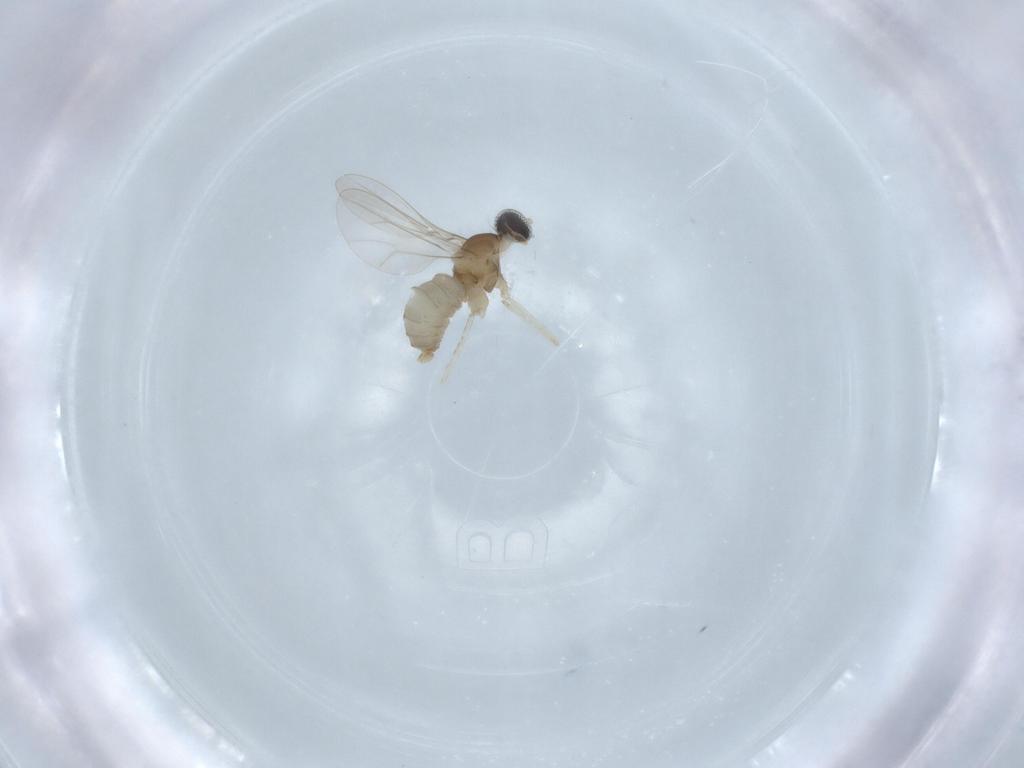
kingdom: Animalia
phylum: Arthropoda
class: Insecta
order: Diptera
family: Cecidomyiidae
